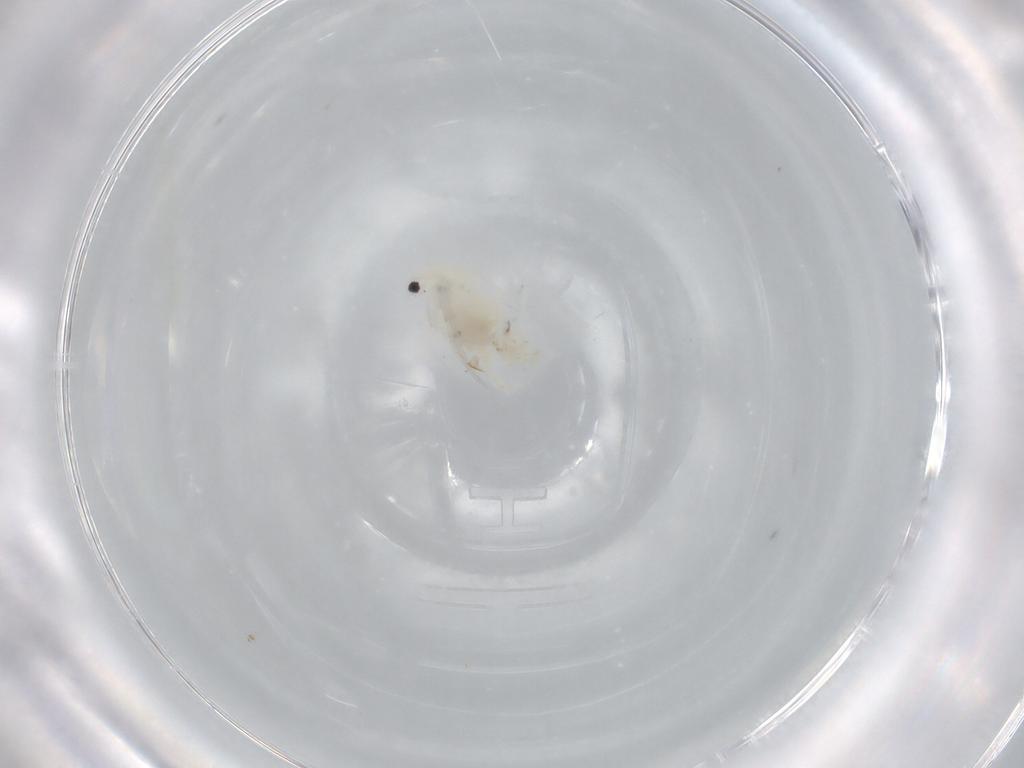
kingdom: Animalia
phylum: Arthropoda
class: Branchiopoda
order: Diplostraca
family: Daphniidae
